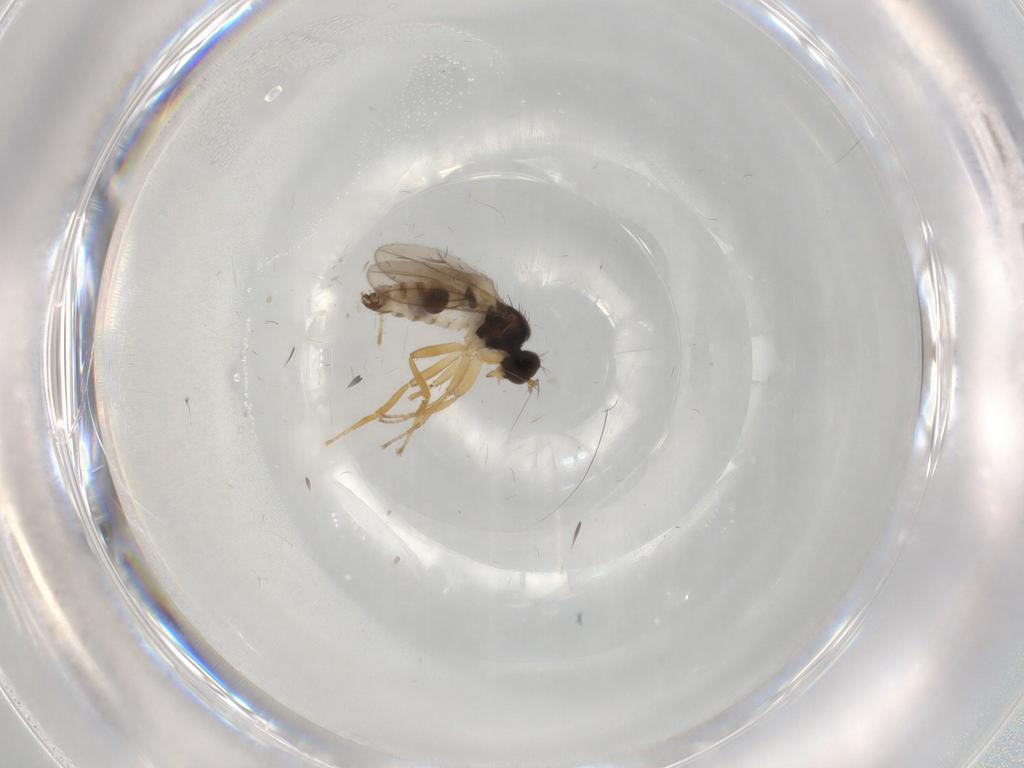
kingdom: Animalia
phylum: Arthropoda
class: Insecta
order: Diptera
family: Hybotidae
